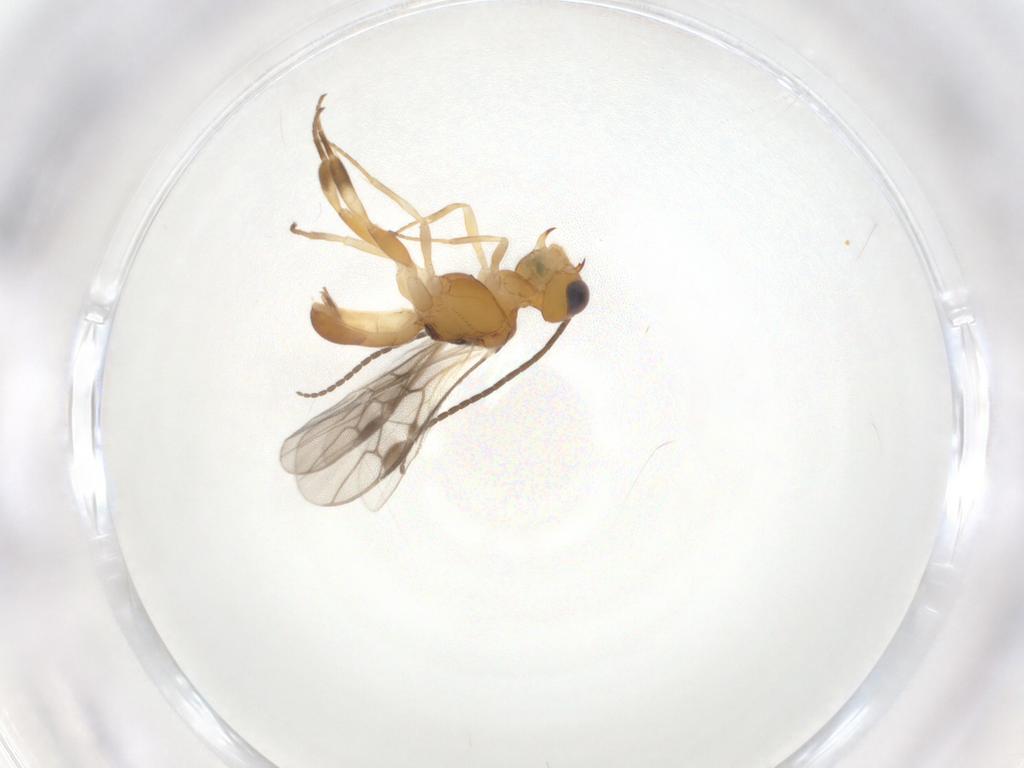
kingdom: Animalia
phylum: Arthropoda
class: Insecta
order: Hymenoptera
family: Braconidae
